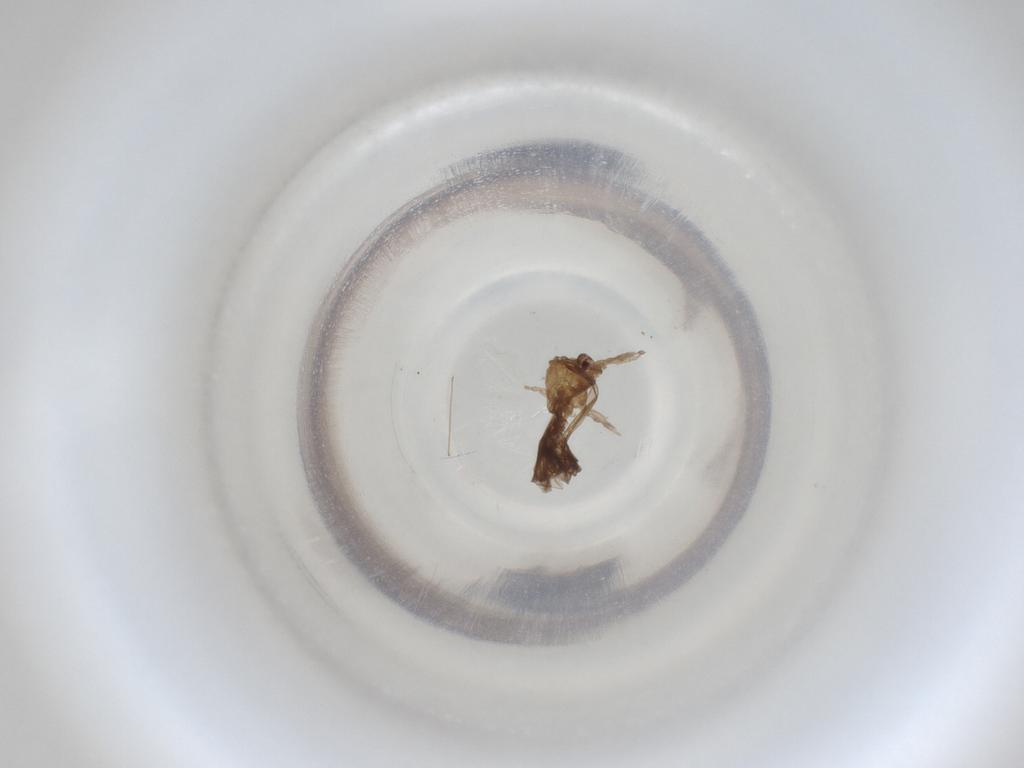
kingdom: Animalia
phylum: Arthropoda
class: Insecta
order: Diptera
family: Cecidomyiidae
